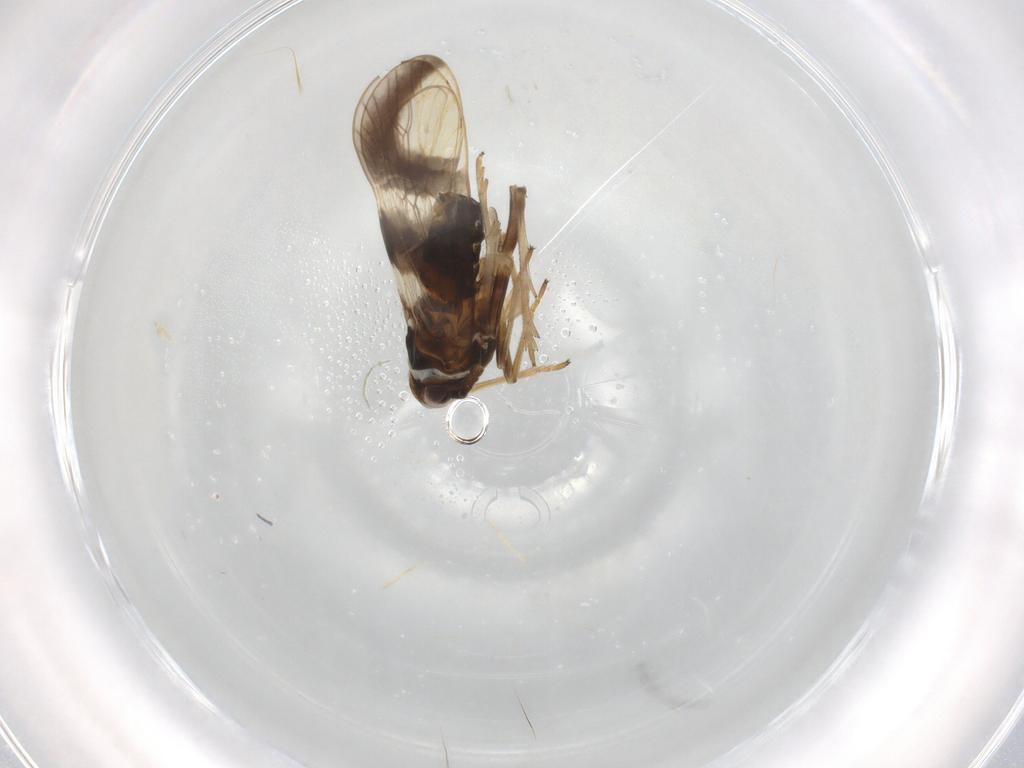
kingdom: Animalia
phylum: Arthropoda
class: Insecta
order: Hemiptera
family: Delphacidae
